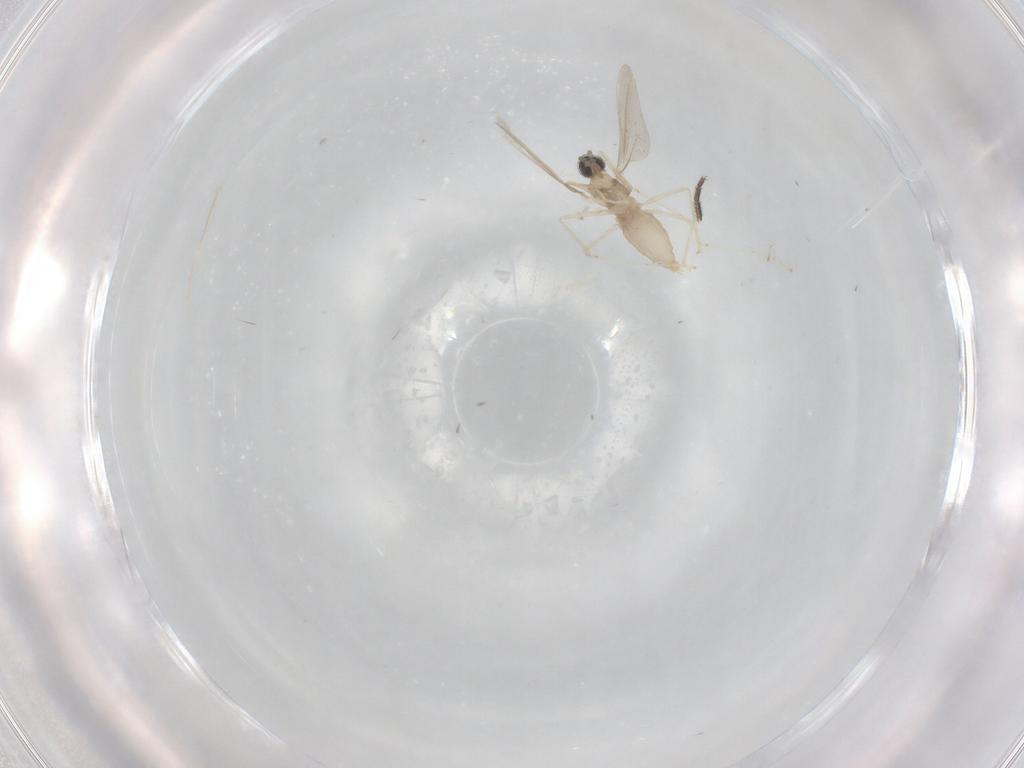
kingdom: Animalia
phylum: Arthropoda
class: Insecta
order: Diptera
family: Cecidomyiidae
